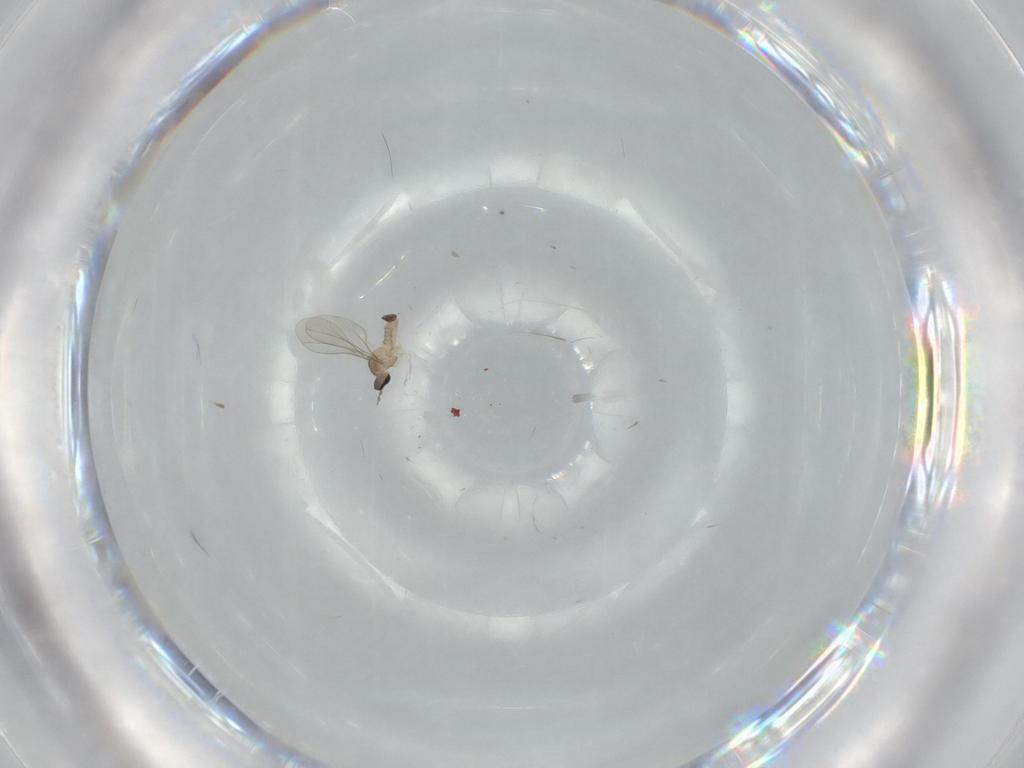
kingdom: Animalia
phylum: Arthropoda
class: Insecta
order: Diptera
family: Cecidomyiidae
